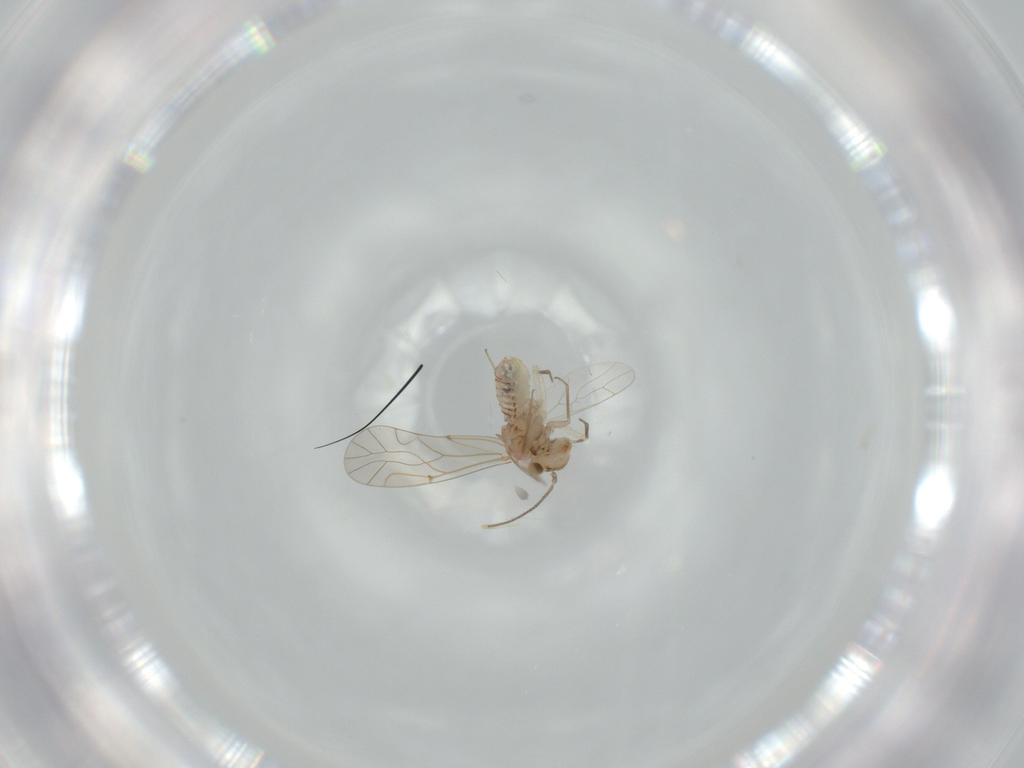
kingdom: Animalia
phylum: Arthropoda
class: Insecta
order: Psocodea
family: Lachesillidae
